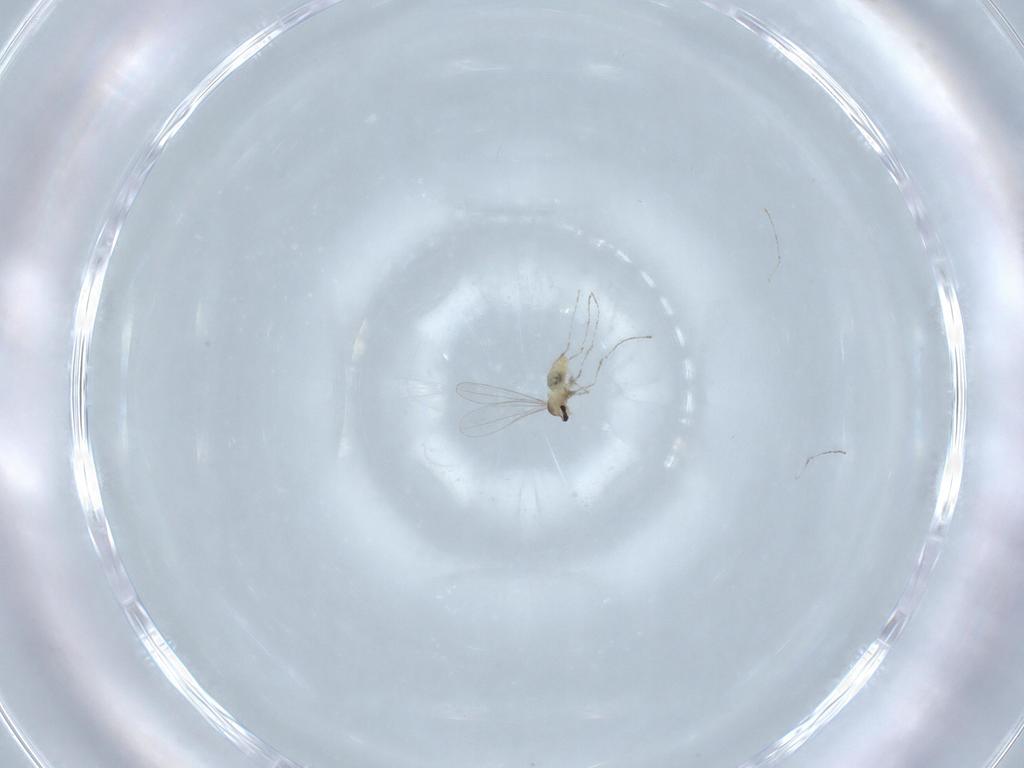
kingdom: Animalia
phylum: Arthropoda
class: Insecta
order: Diptera
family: Cecidomyiidae
